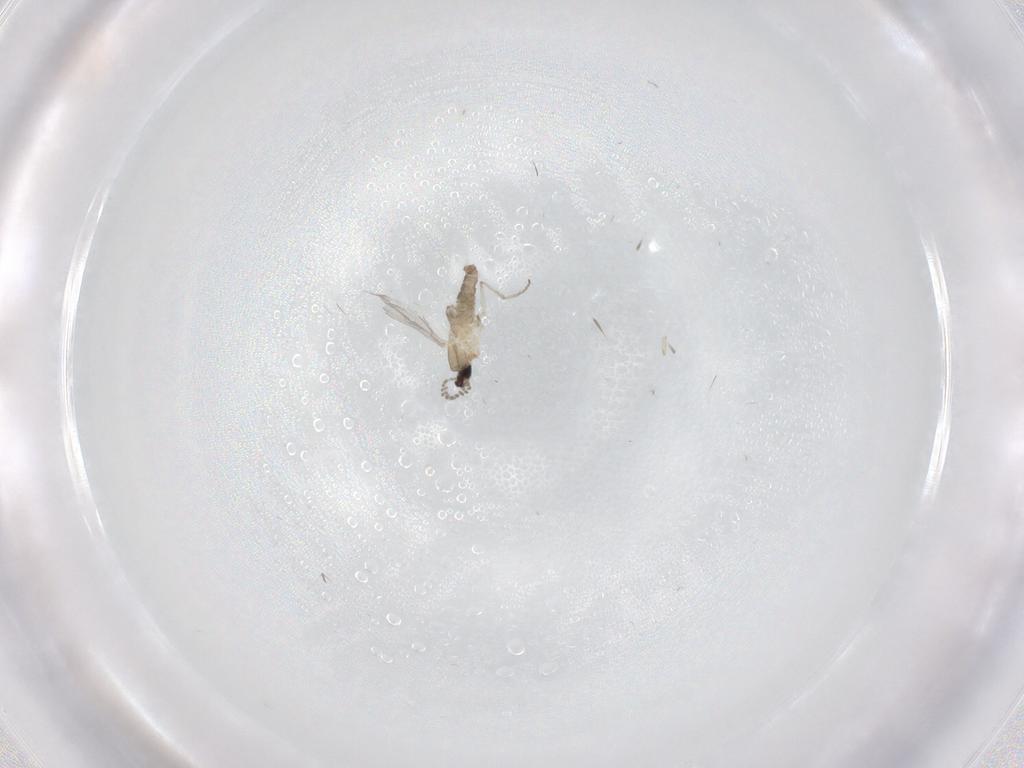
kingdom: Animalia
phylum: Arthropoda
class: Insecta
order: Diptera
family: Cecidomyiidae
